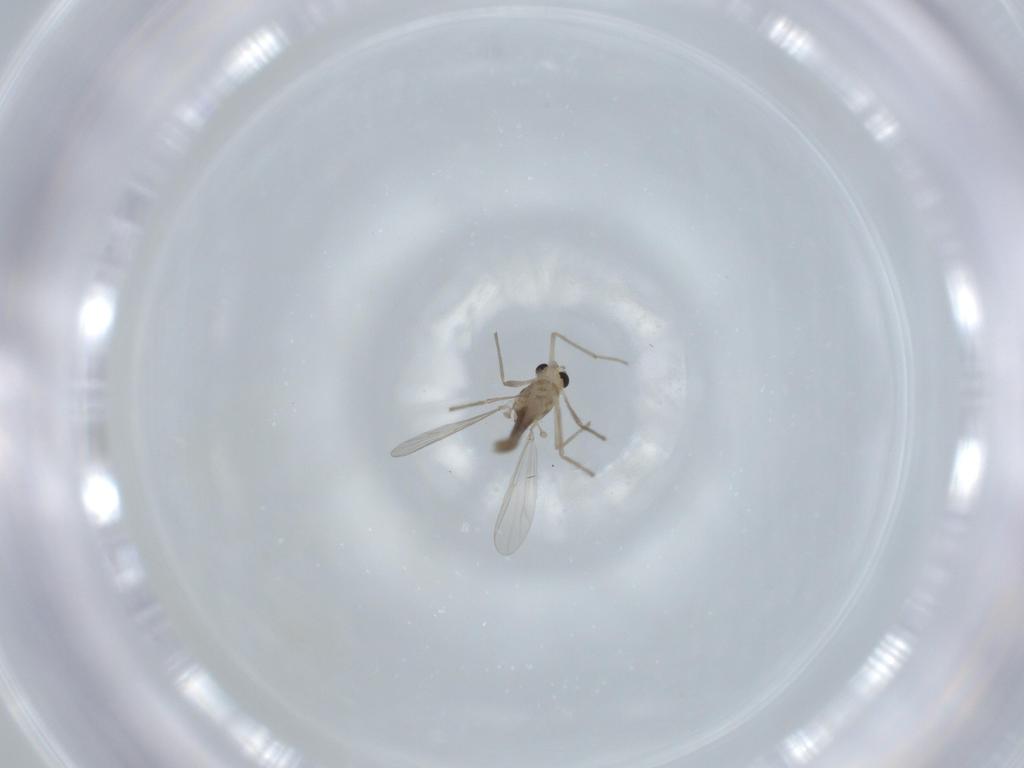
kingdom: Animalia
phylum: Arthropoda
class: Insecta
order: Diptera
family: Chironomidae
